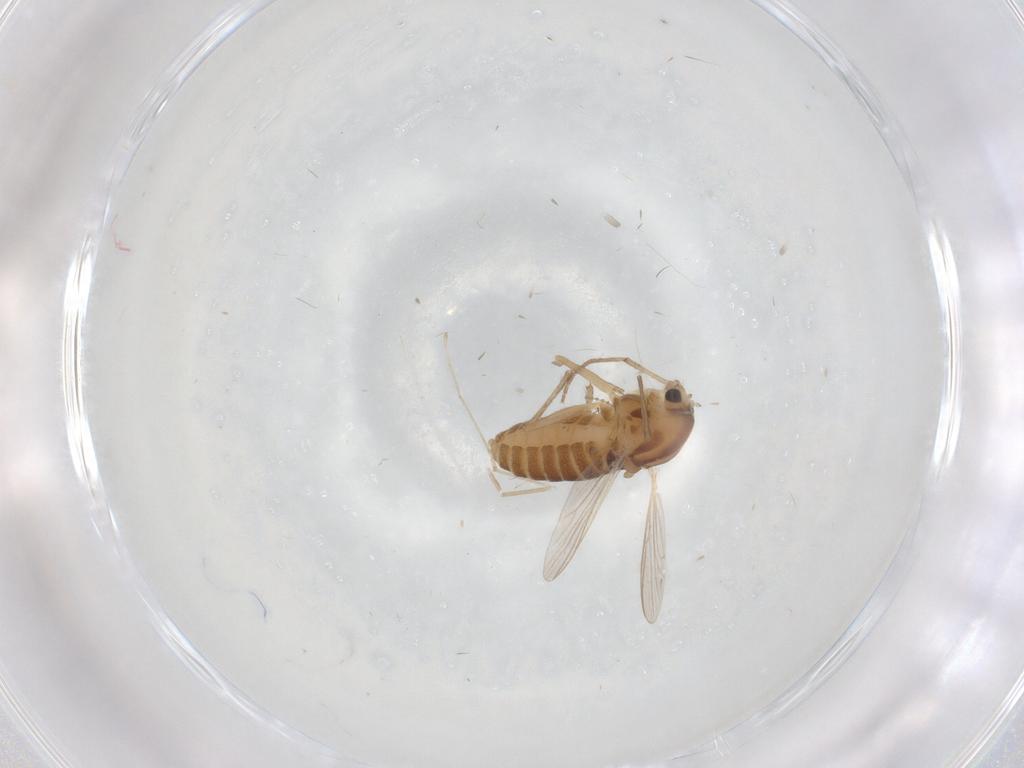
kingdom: Animalia
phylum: Arthropoda
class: Insecta
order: Diptera
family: Chironomidae
